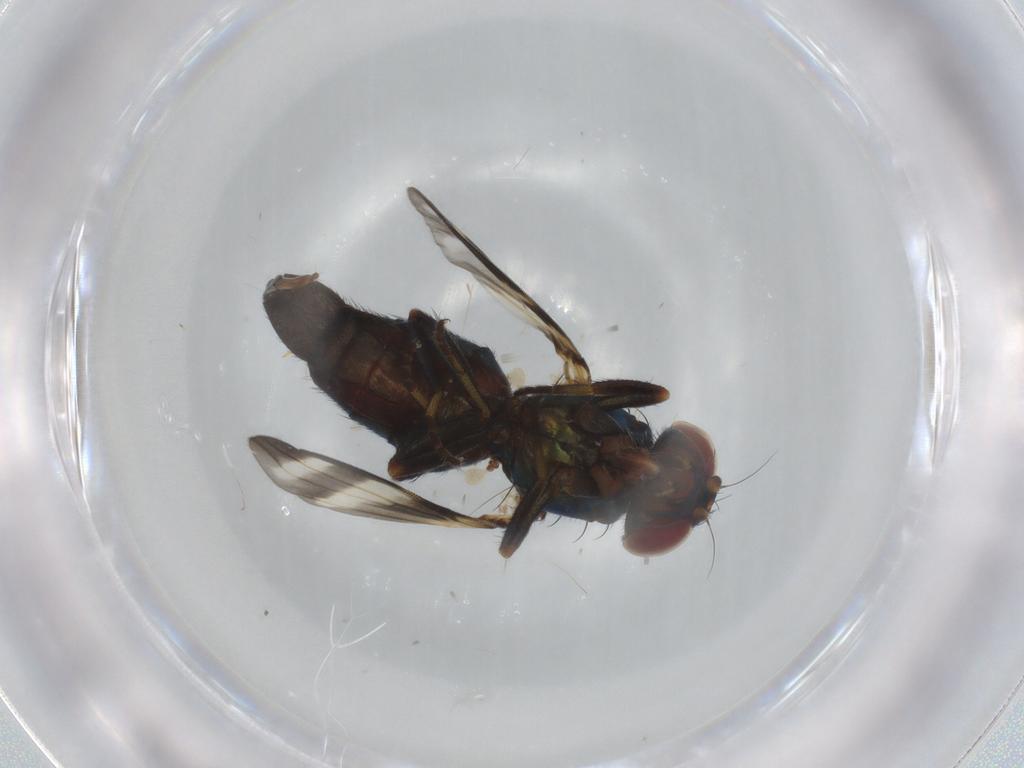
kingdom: Animalia
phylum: Arthropoda
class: Insecta
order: Diptera
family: Ulidiidae
